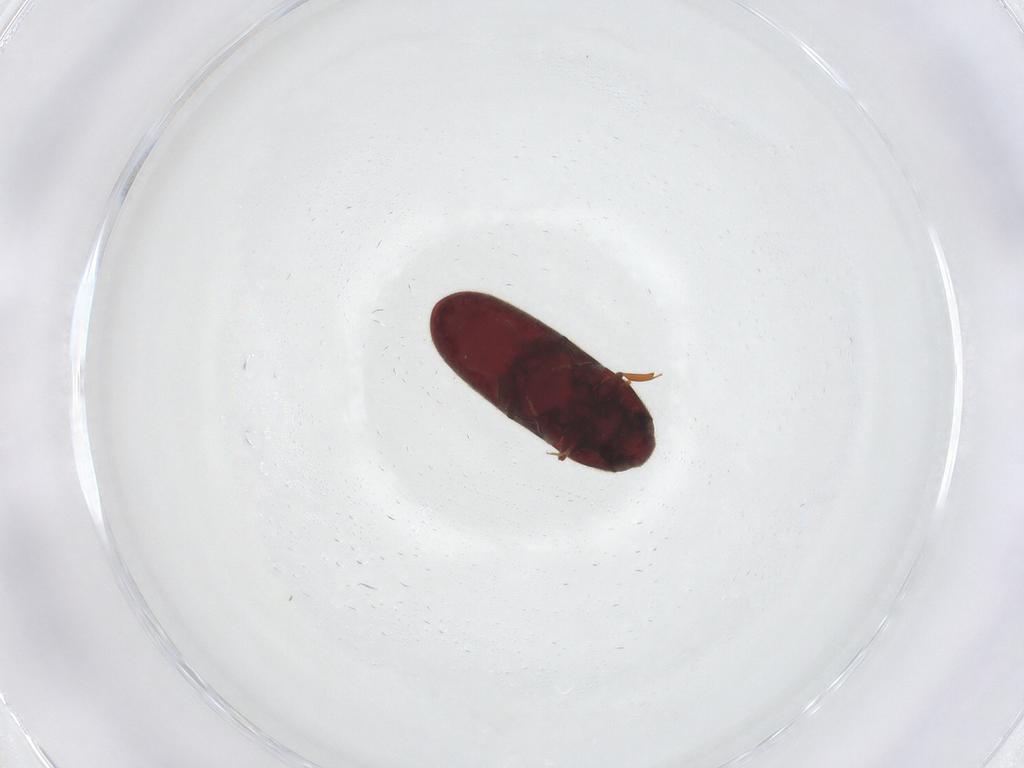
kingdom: Animalia
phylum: Arthropoda
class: Insecta
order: Coleoptera
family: Throscidae
